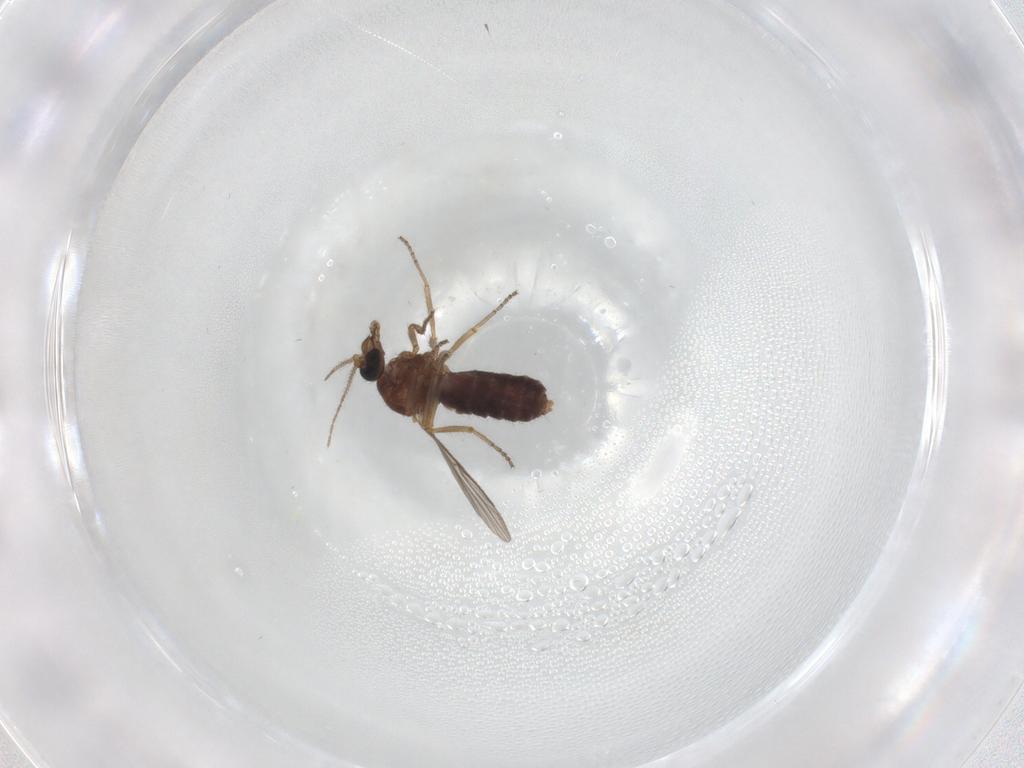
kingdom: Animalia
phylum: Arthropoda
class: Insecta
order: Diptera
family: Ceratopogonidae
